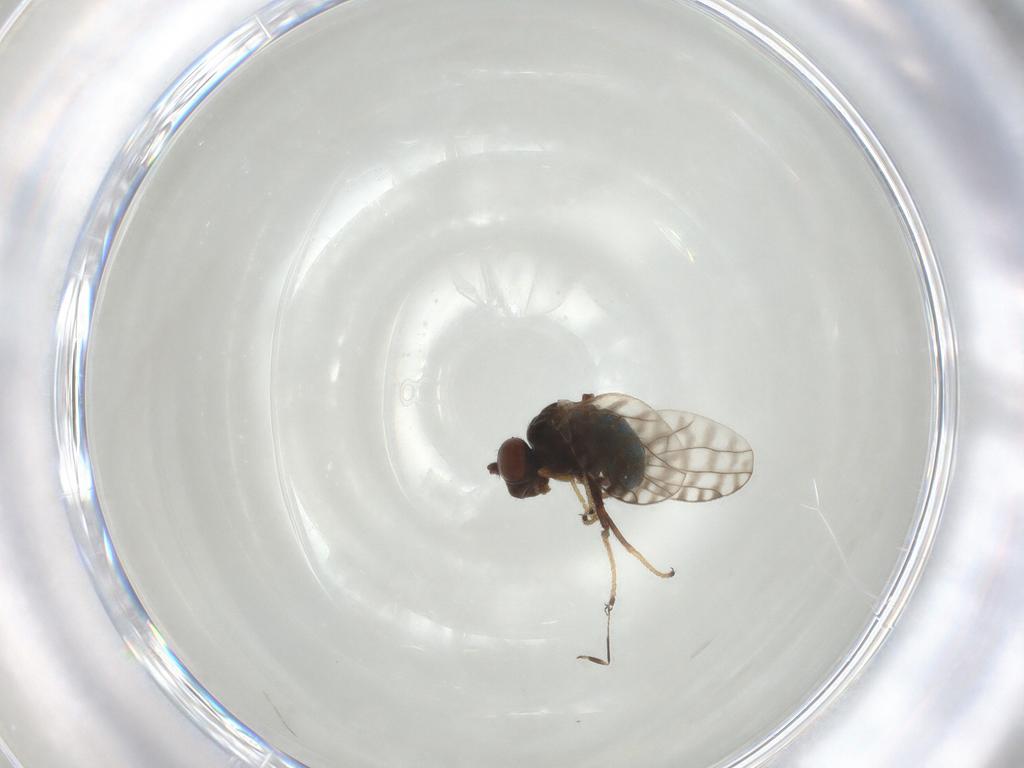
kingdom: Animalia
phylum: Arthropoda
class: Insecta
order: Diptera
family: Ephydridae
